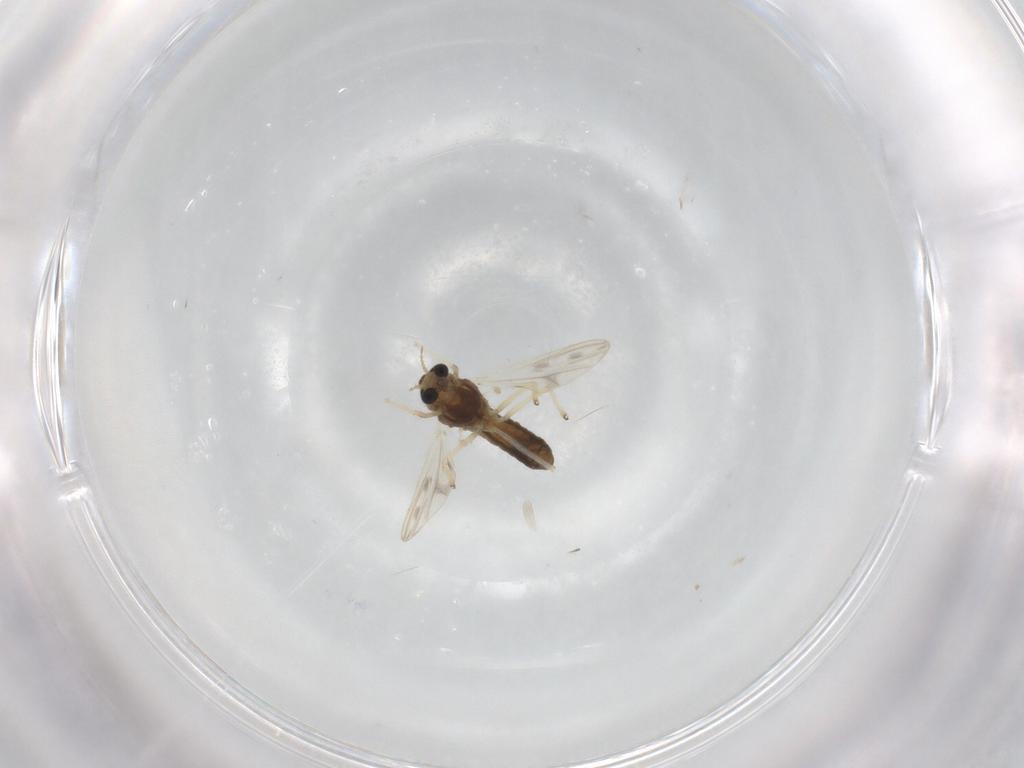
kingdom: Animalia
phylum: Arthropoda
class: Insecta
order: Diptera
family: Chironomidae
